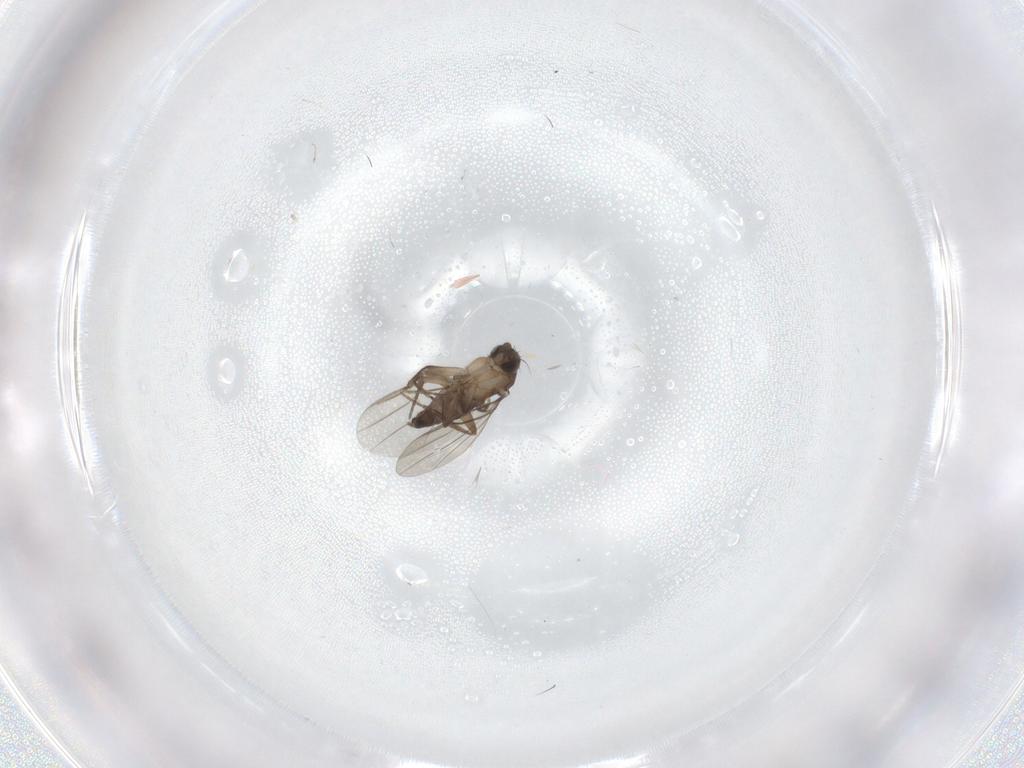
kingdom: Animalia
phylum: Arthropoda
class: Insecta
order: Diptera
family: Phoridae
